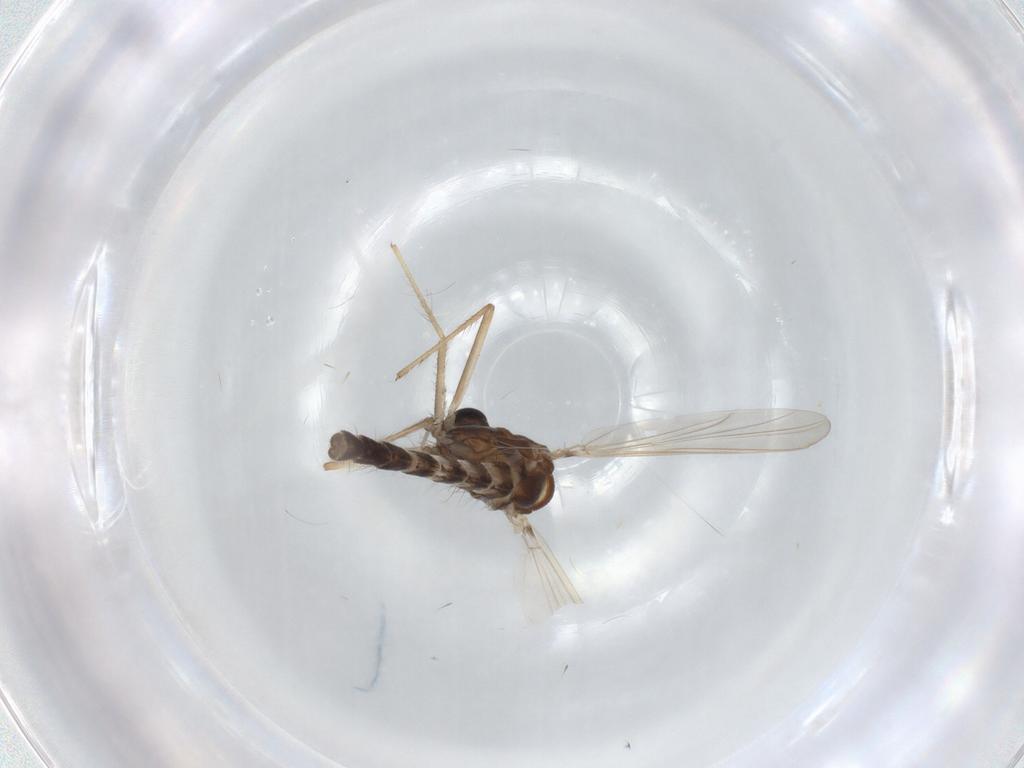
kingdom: Animalia
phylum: Arthropoda
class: Insecta
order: Diptera
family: Chironomidae
